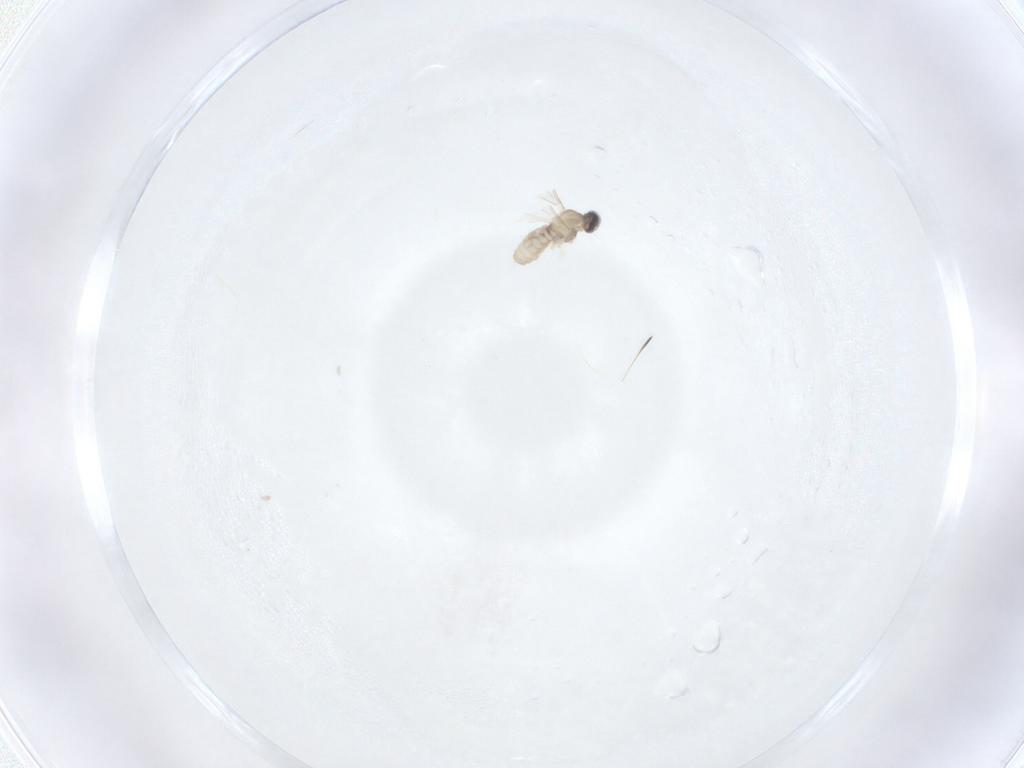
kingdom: Animalia
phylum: Arthropoda
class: Insecta
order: Diptera
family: Cecidomyiidae
